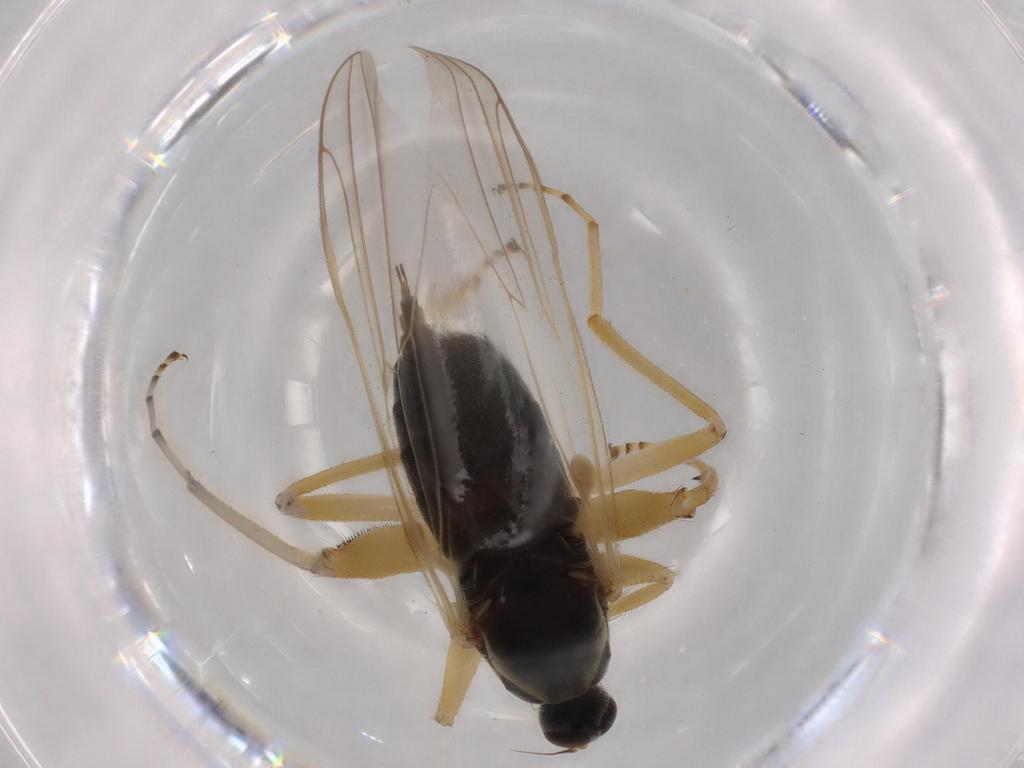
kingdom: Animalia
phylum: Arthropoda
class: Insecta
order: Diptera
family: Hybotidae
